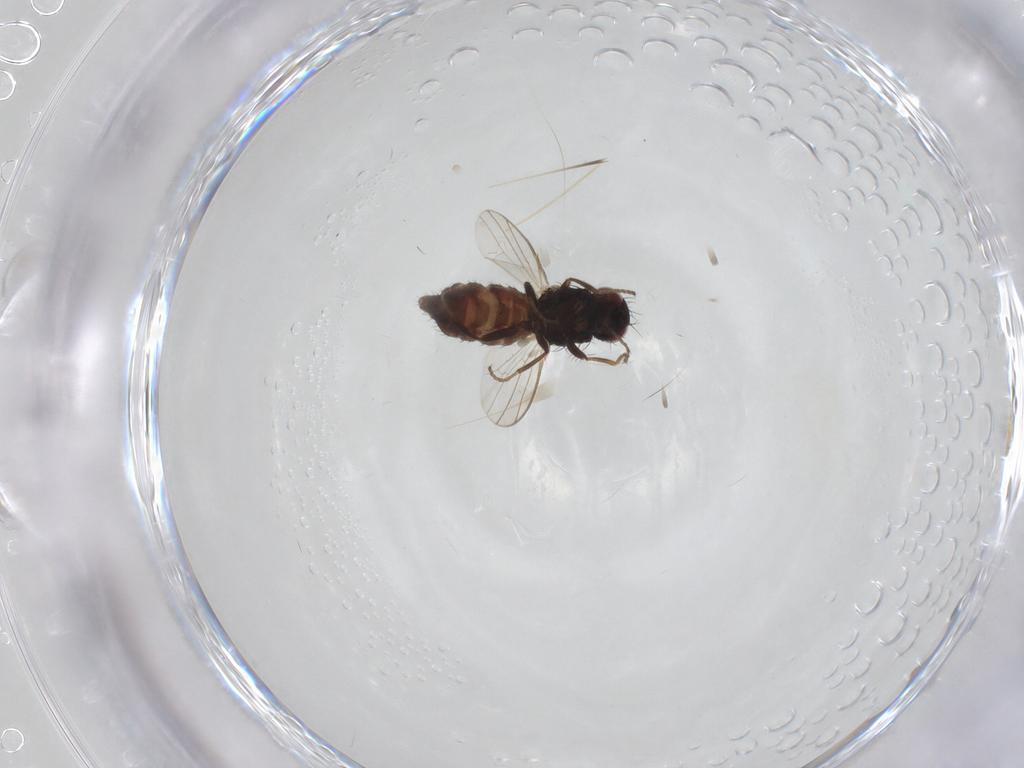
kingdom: Animalia
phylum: Arthropoda
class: Insecta
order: Diptera
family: Carnidae
